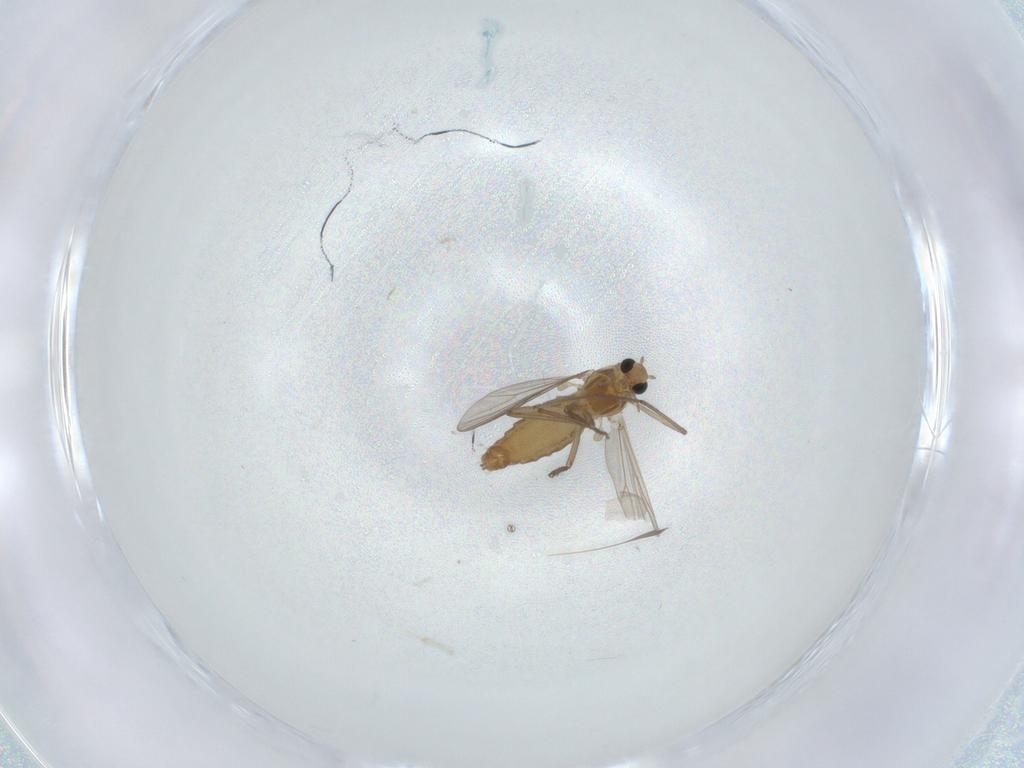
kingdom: Animalia
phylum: Arthropoda
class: Insecta
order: Diptera
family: Chironomidae
